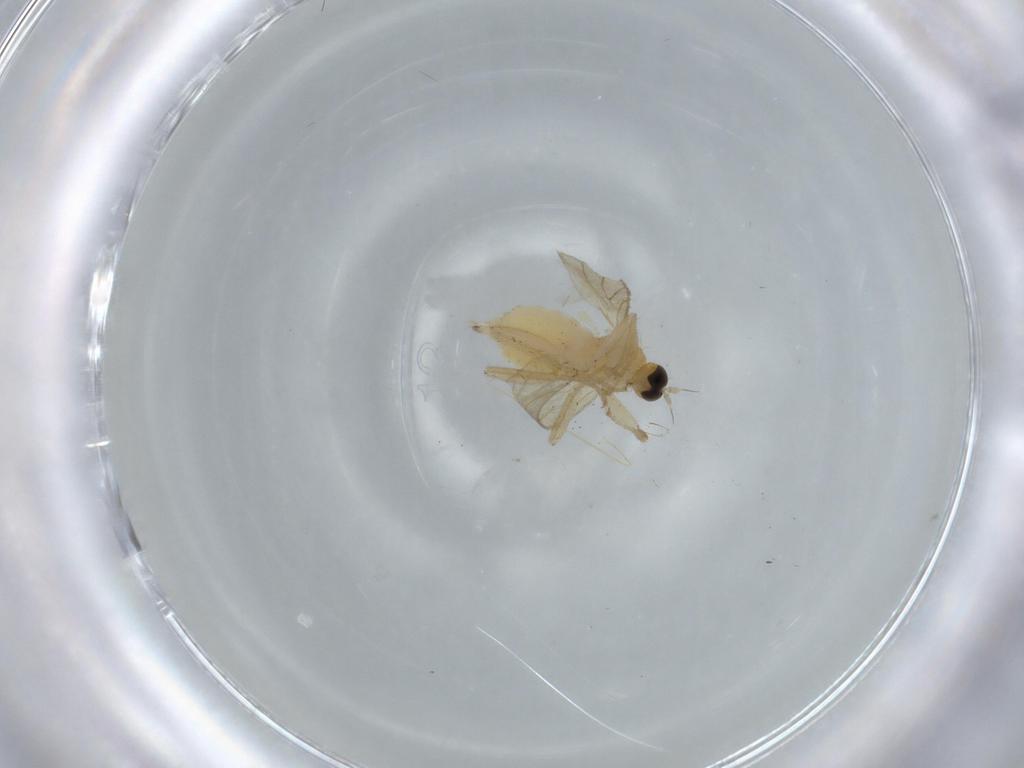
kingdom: Animalia
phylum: Arthropoda
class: Insecta
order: Diptera
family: Hybotidae
